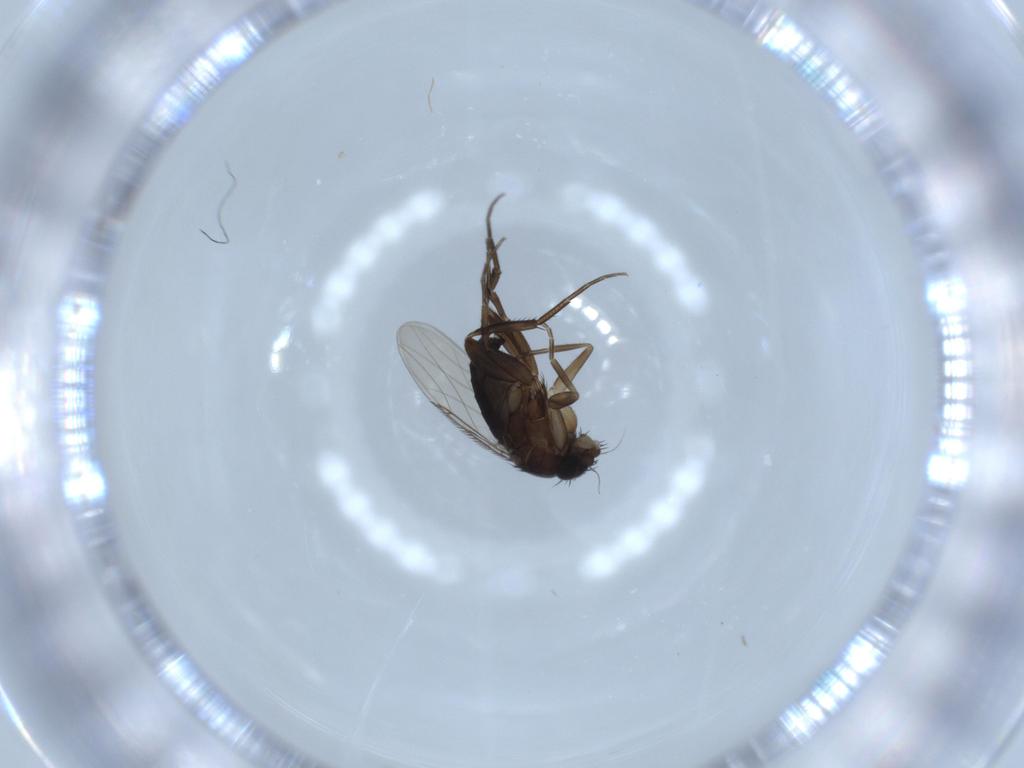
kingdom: Animalia
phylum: Arthropoda
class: Insecta
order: Diptera
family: Phoridae
